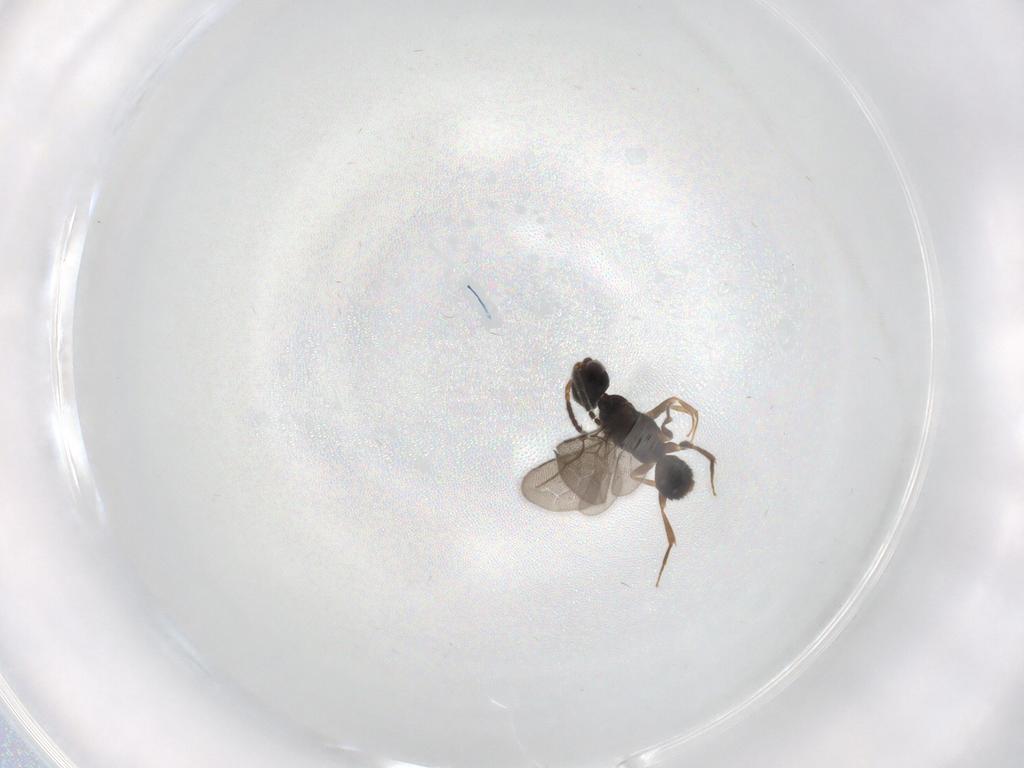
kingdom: Animalia
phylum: Arthropoda
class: Insecta
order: Hymenoptera
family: Bethylidae
